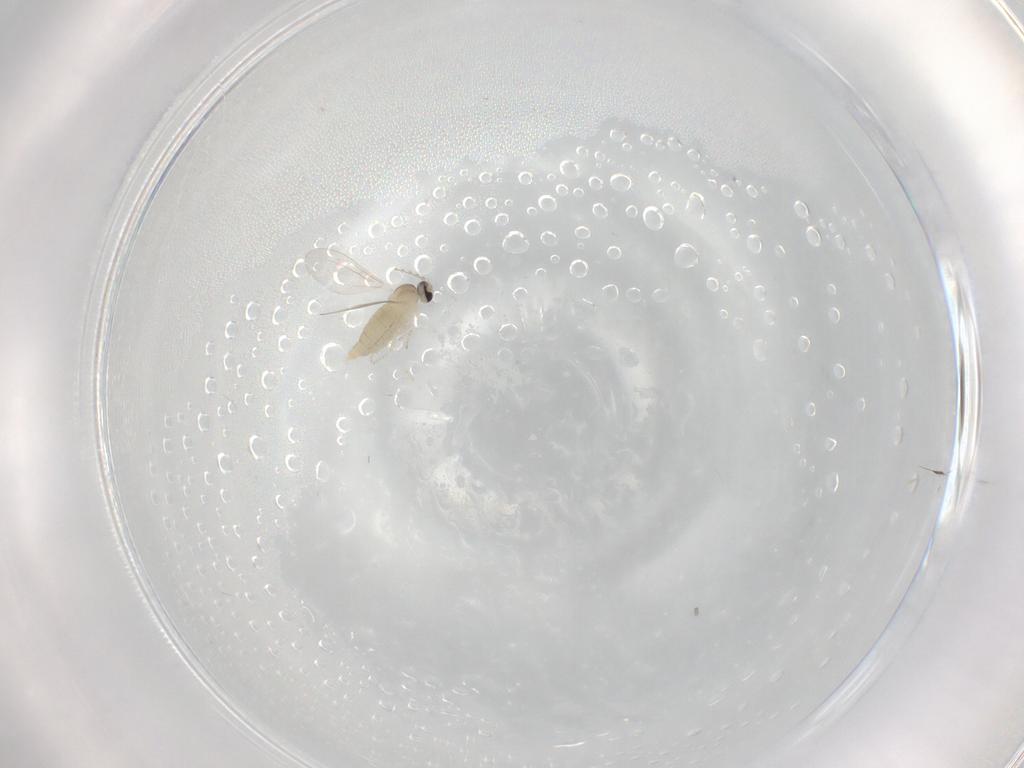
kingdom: Animalia
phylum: Arthropoda
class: Insecta
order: Diptera
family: Cecidomyiidae
